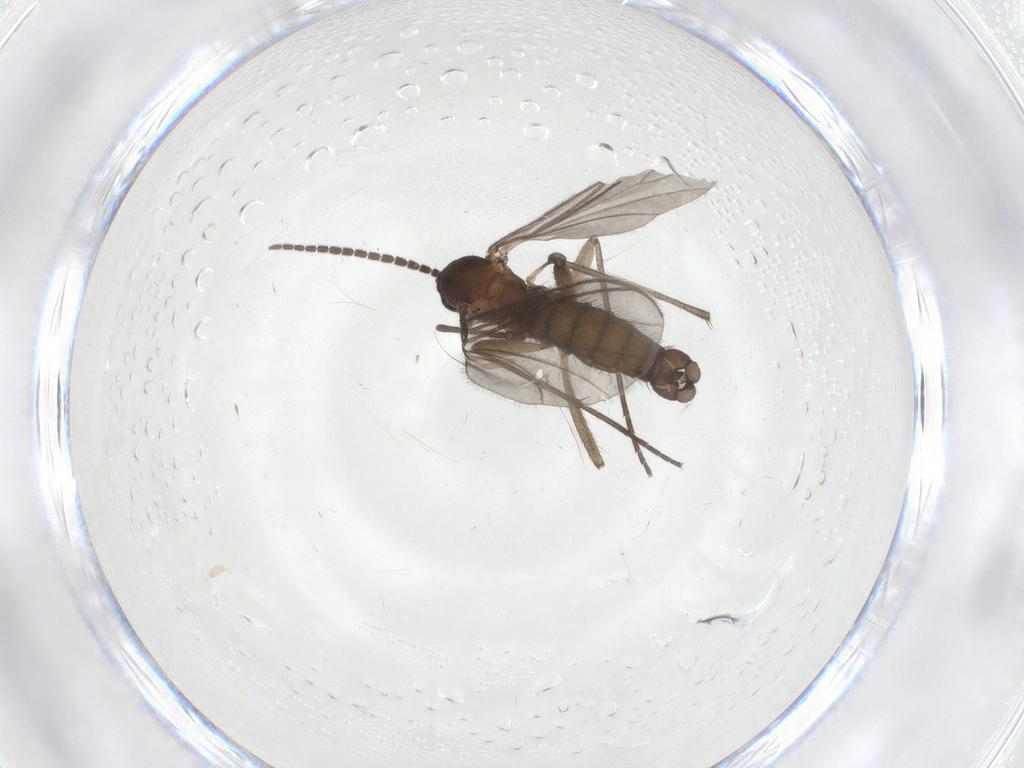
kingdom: Animalia
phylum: Arthropoda
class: Insecta
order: Diptera
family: Sciaridae
